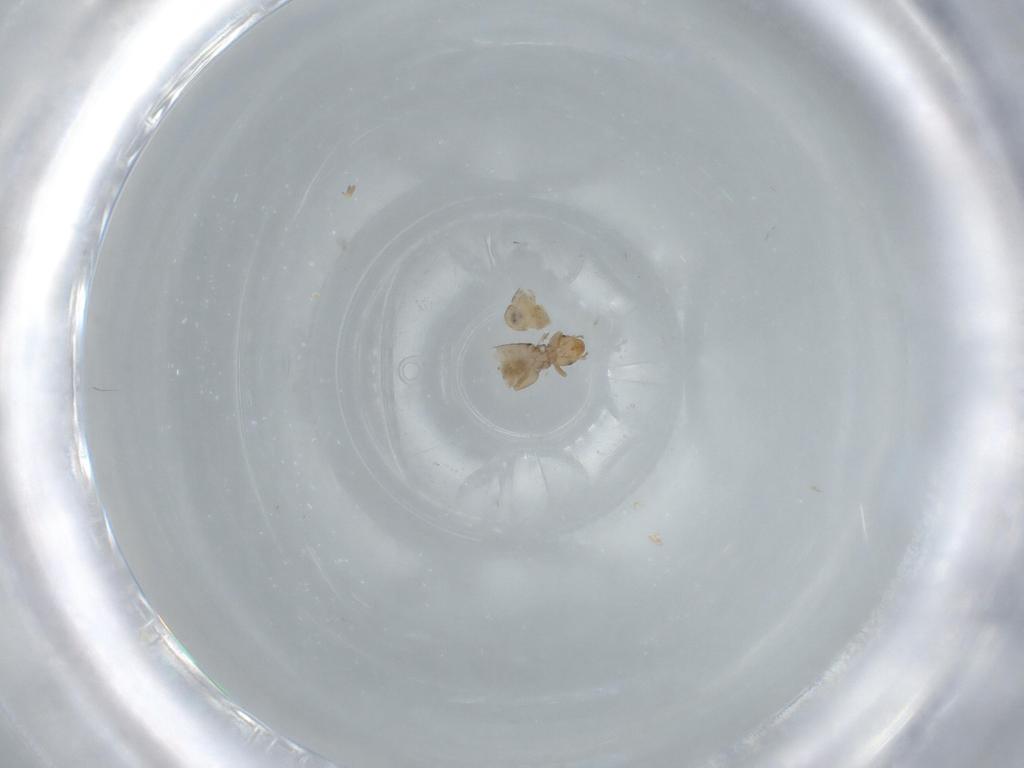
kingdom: Animalia
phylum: Arthropoda
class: Insecta
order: Psocodea
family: Liposcelididae
